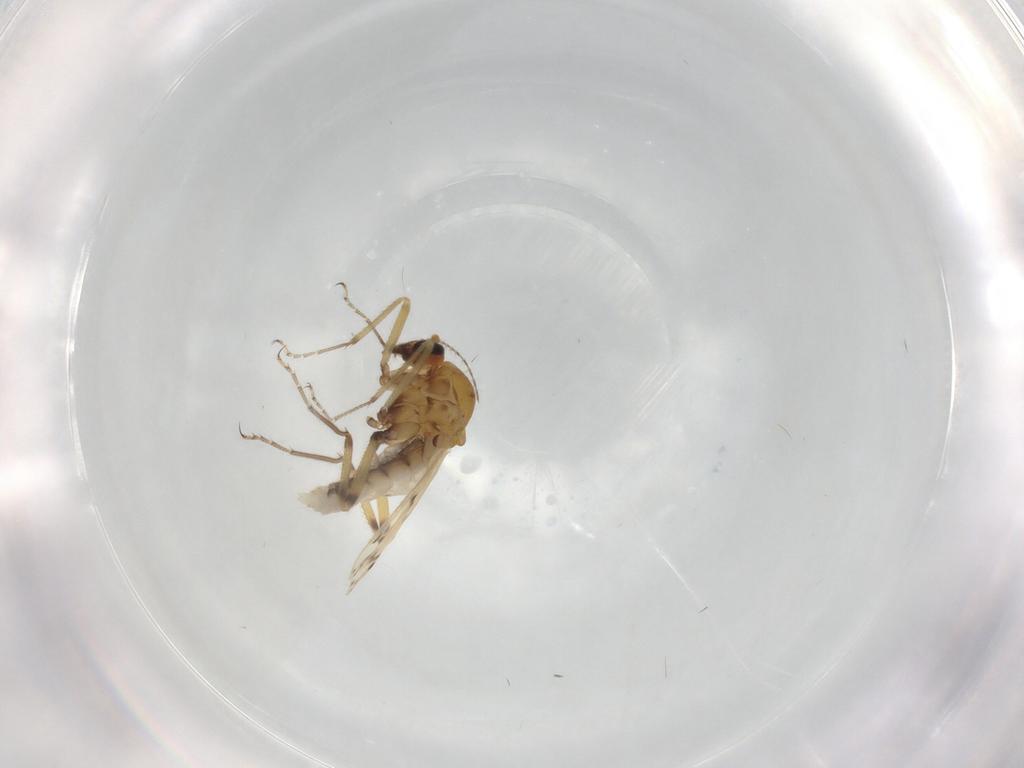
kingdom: Animalia
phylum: Arthropoda
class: Insecta
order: Diptera
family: Ceratopogonidae
